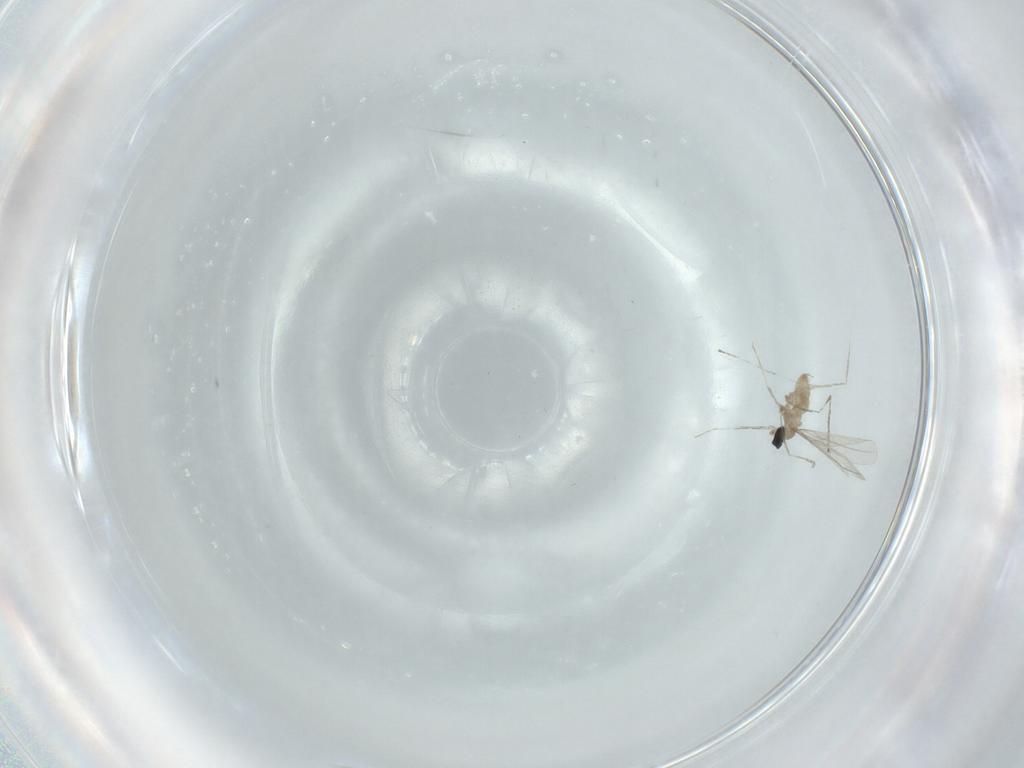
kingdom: Animalia
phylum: Arthropoda
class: Insecta
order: Diptera
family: Cecidomyiidae
